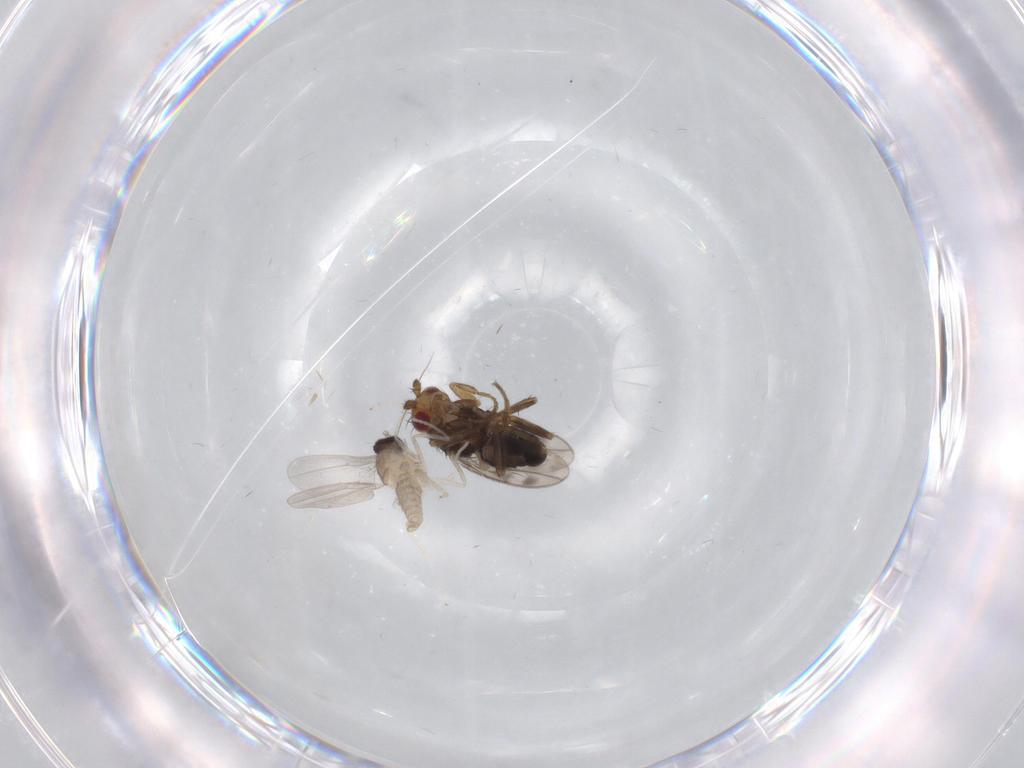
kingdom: Animalia
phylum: Arthropoda
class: Insecta
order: Diptera
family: Cecidomyiidae
